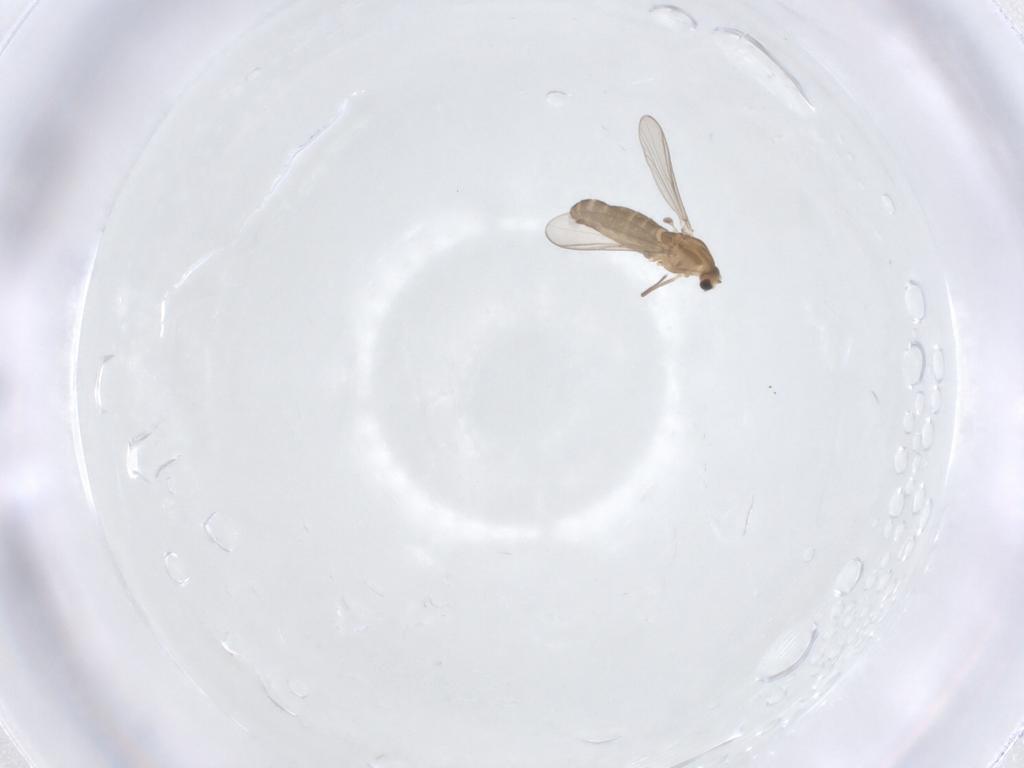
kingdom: Animalia
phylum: Arthropoda
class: Insecta
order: Diptera
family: Chironomidae
